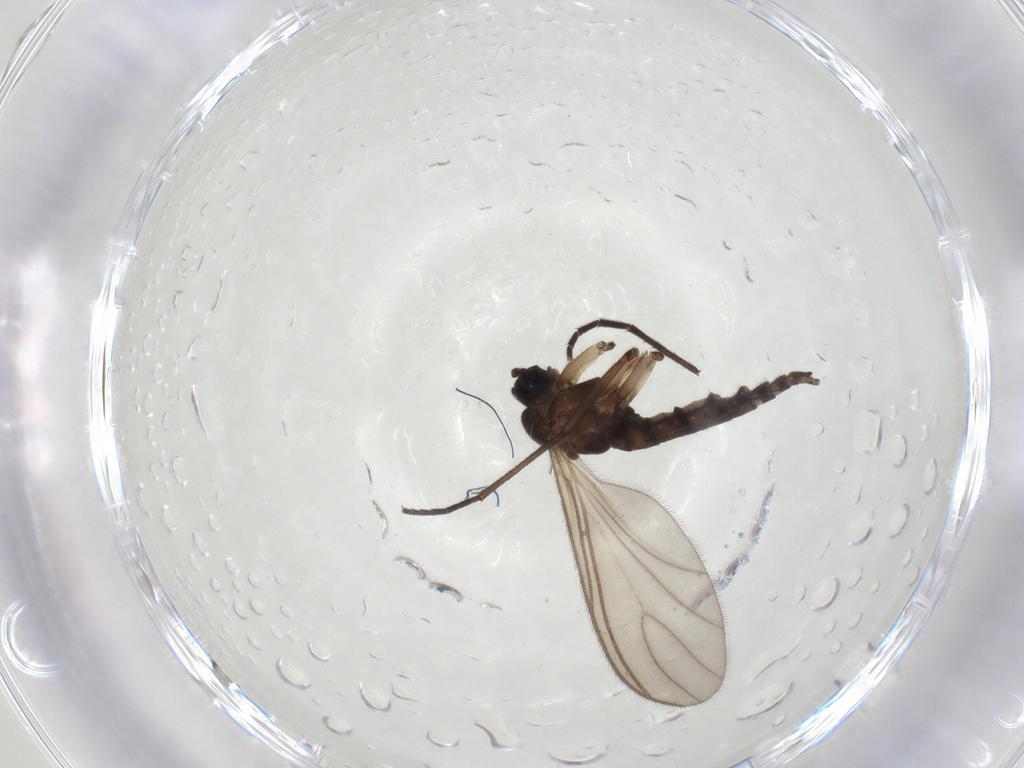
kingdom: Animalia
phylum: Arthropoda
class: Insecta
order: Diptera
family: Sciaridae
